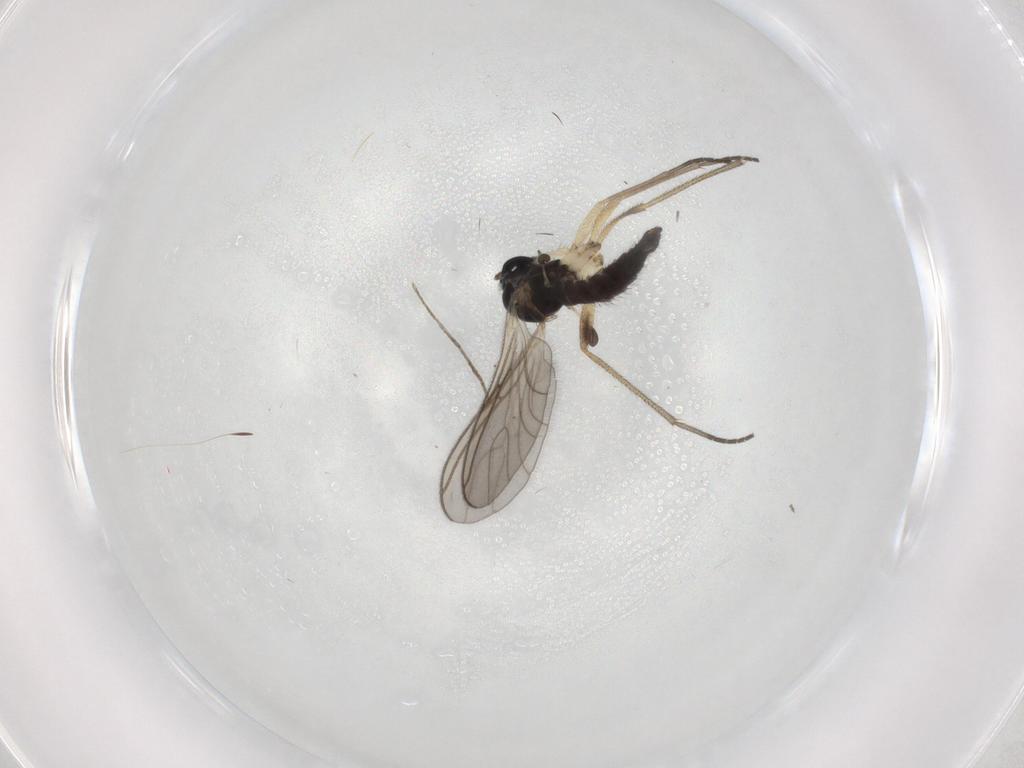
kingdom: Animalia
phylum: Arthropoda
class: Insecta
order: Diptera
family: Sciaridae
